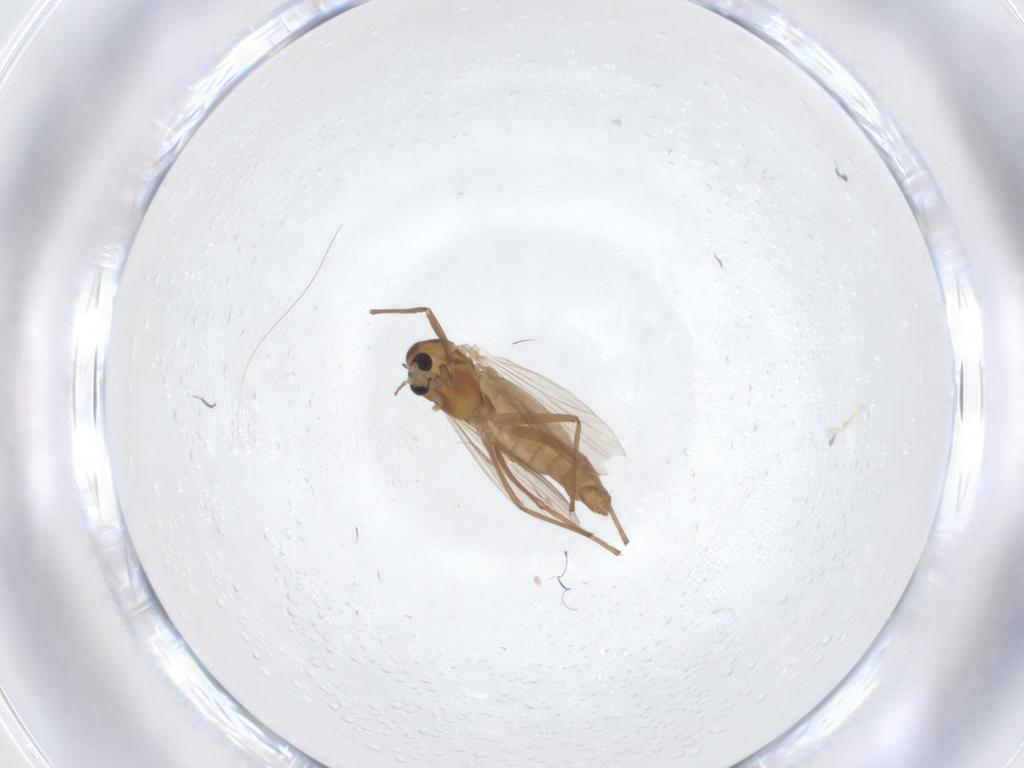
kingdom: Animalia
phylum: Arthropoda
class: Insecta
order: Diptera
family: Chironomidae
